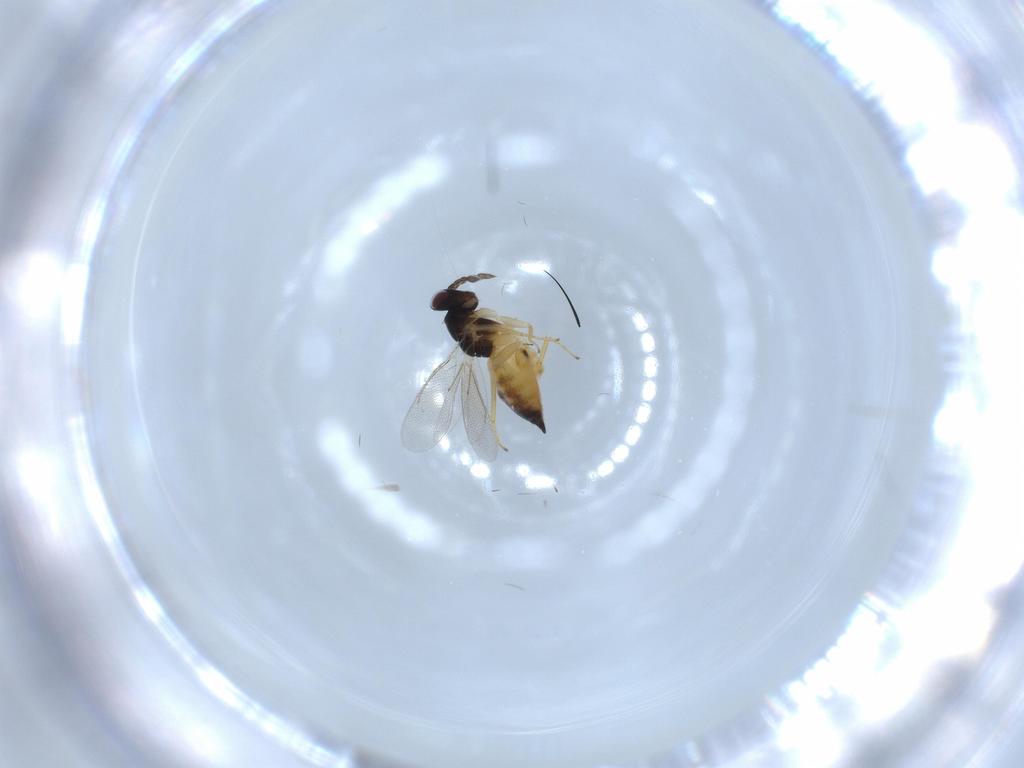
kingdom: Animalia
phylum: Arthropoda
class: Insecta
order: Hymenoptera
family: Eulophidae
